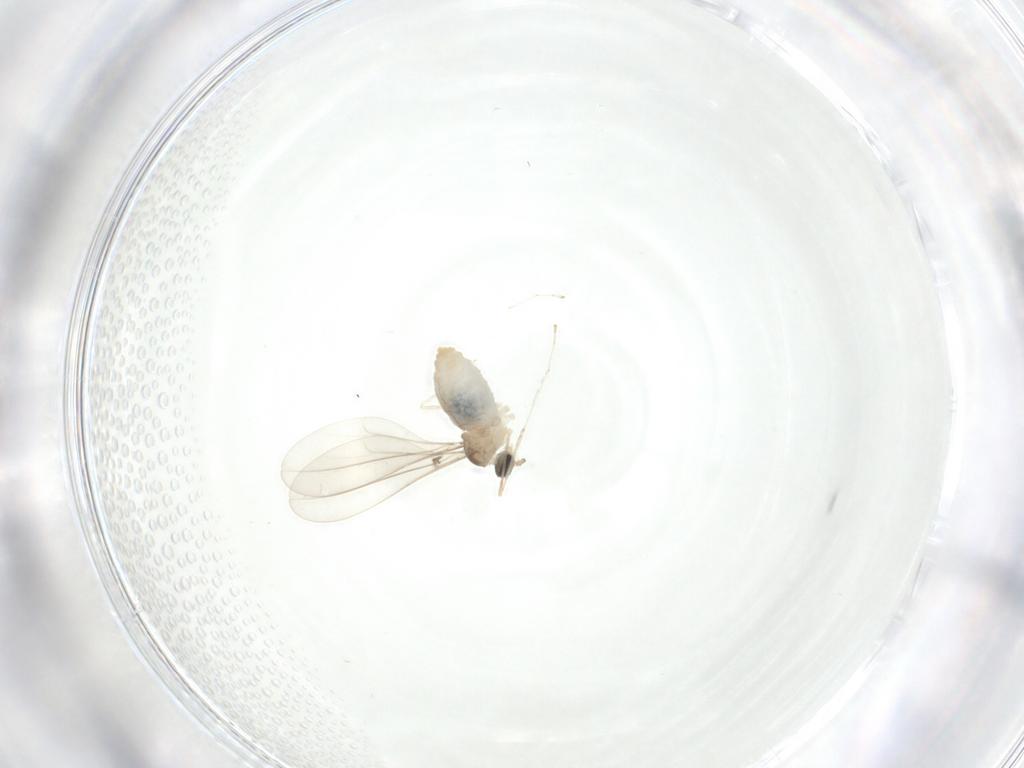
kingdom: Animalia
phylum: Arthropoda
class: Insecta
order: Diptera
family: Cecidomyiidae
